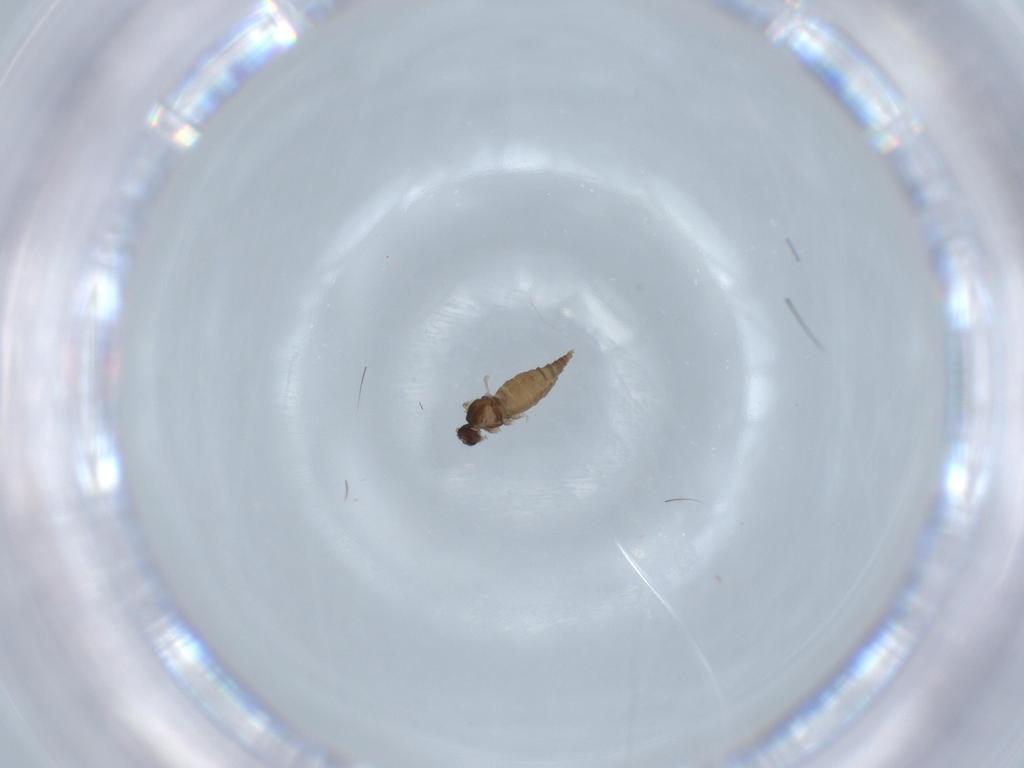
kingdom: Animalia
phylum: Arthropoda
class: Insecta
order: Diptera
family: Cecidomyiidae
